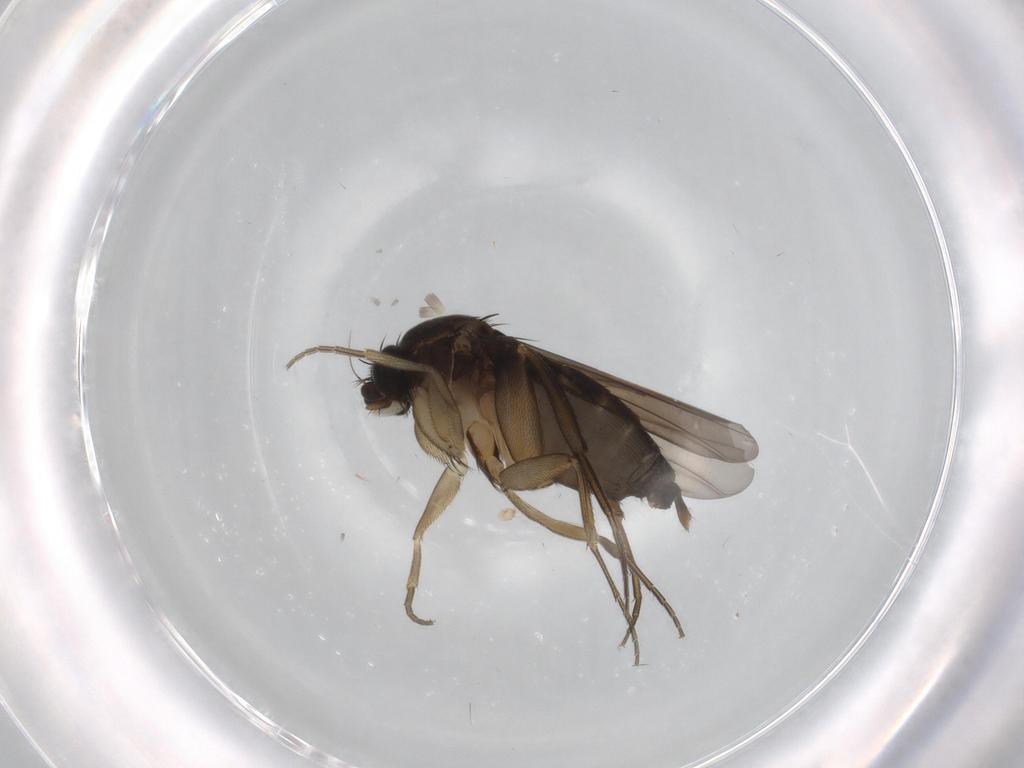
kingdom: Animalia
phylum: Arthropoda
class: Insecta
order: Diptera
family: Phoridae
